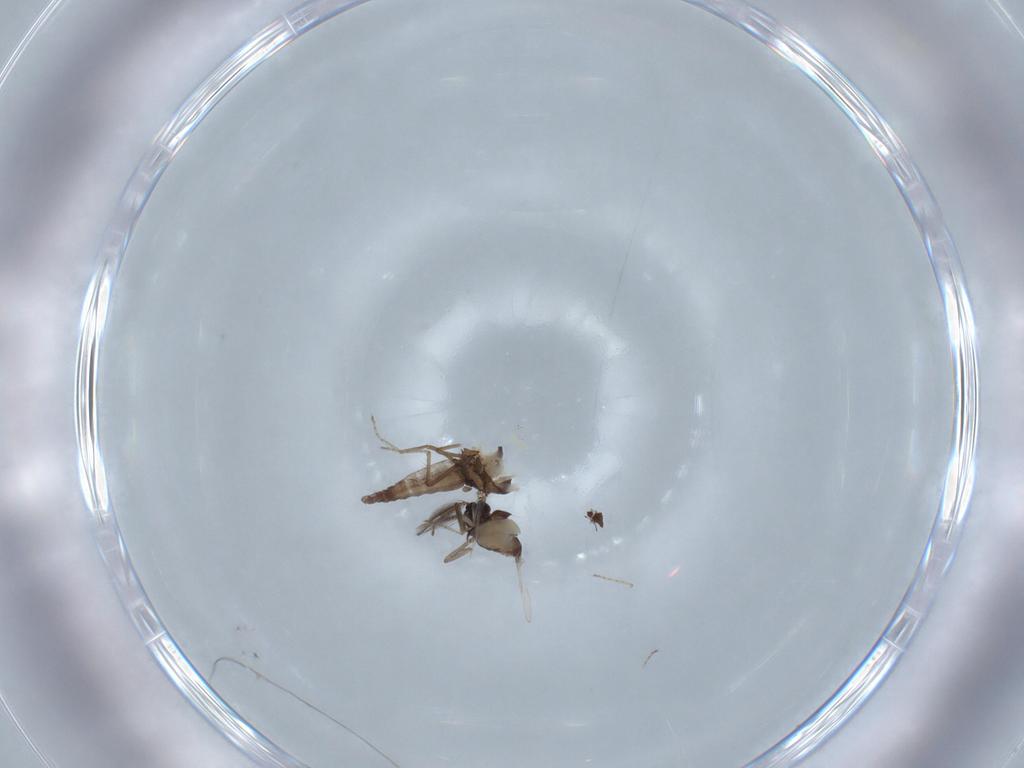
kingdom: Animalia
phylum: Arthropoda
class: Insecta
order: Diptera
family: Ceratopogonidae
